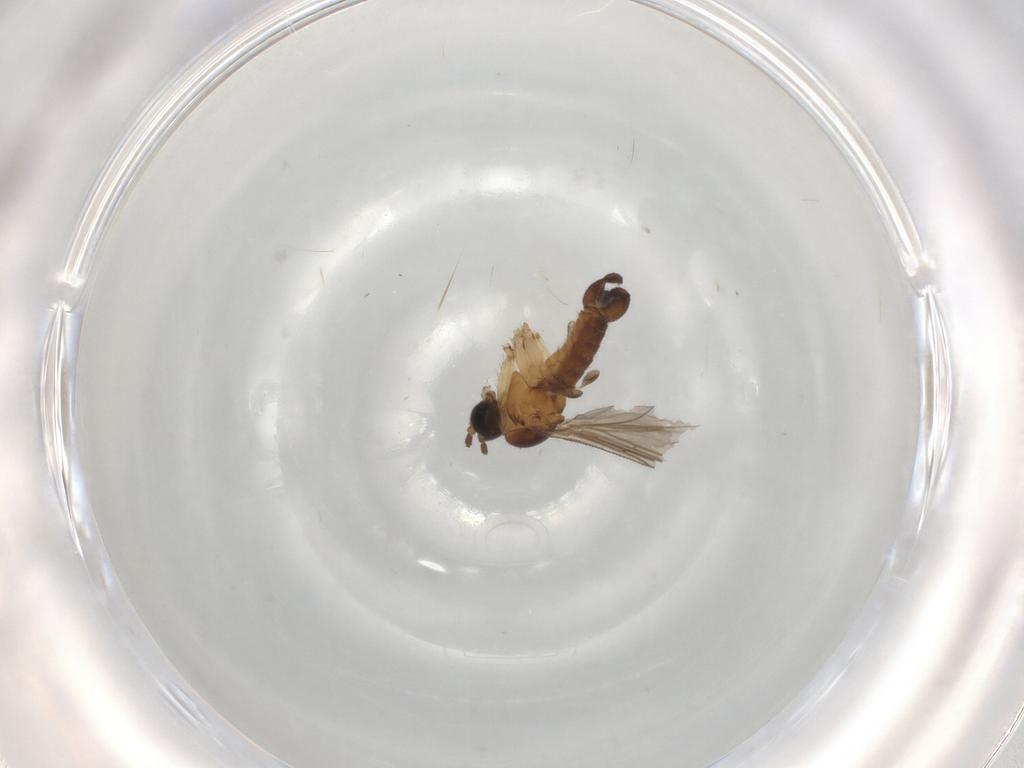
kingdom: Animalia
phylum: Arthropoda
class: Insecta
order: Diptera
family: Sciaridae
